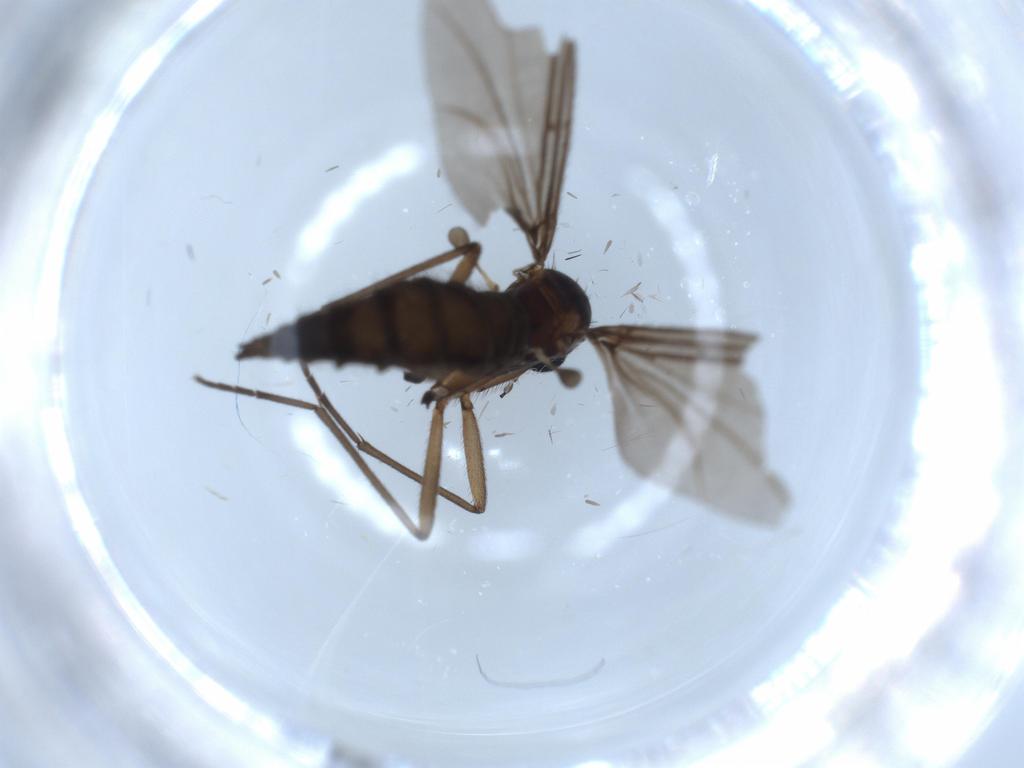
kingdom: Animalia
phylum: Arthropoda
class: Insecta
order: Diptera
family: Sciaridae
